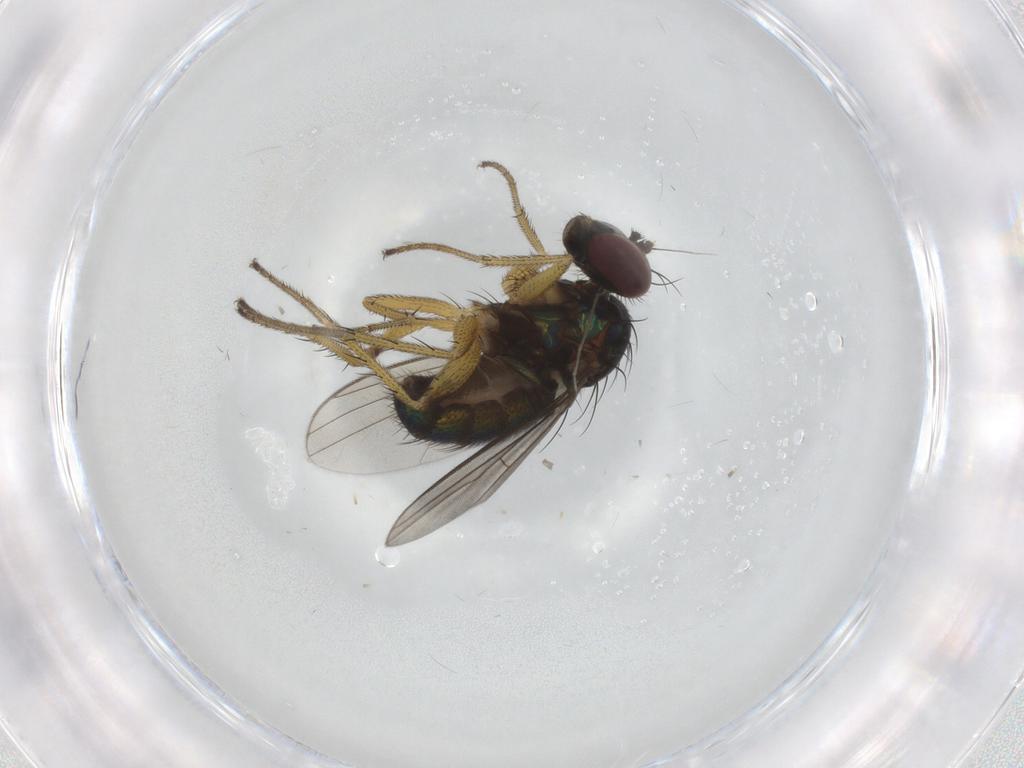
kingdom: Animalia
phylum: Arthropoda
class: Insecta
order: Diptera
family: Dolichopodidae
